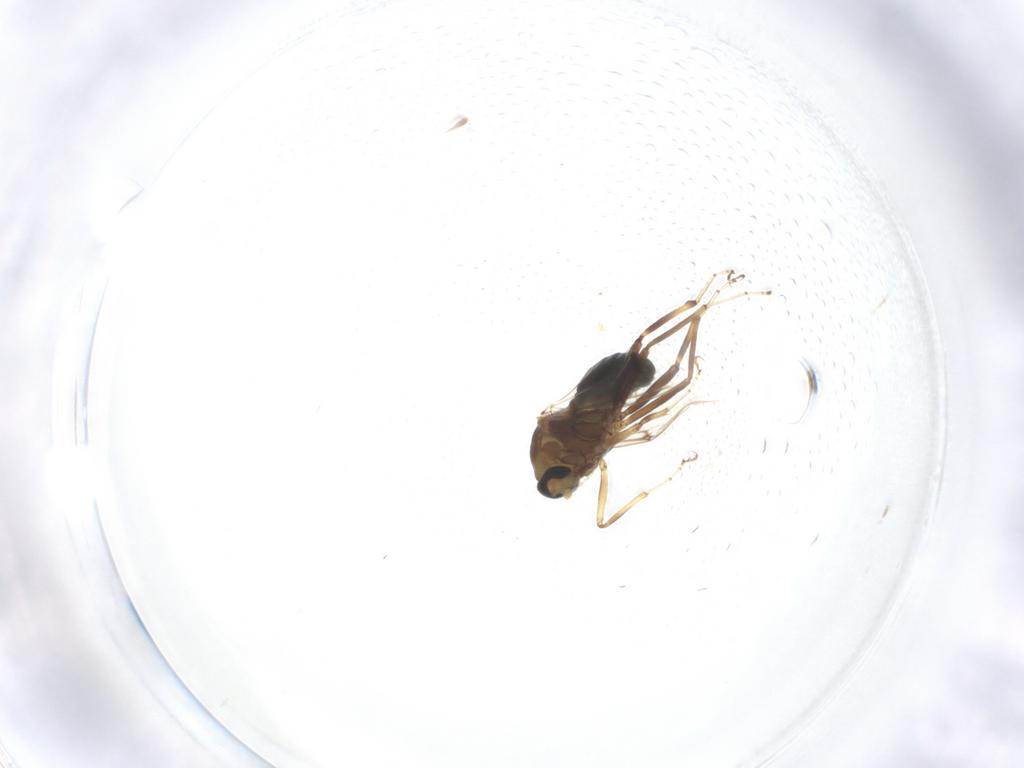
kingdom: Animalia
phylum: Arthropoda
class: Insecta
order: Diptera
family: Ceratopogonidae
